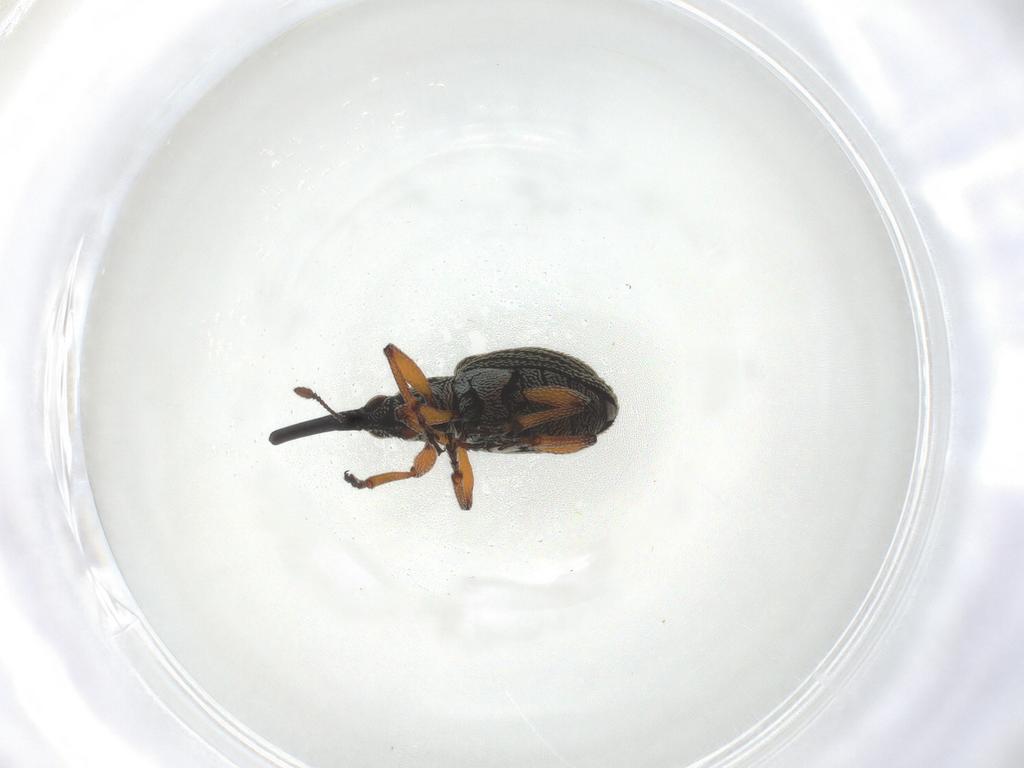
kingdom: Animalia
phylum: Arthropoda
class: Insecta
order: Coleoptera
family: Brentidae
